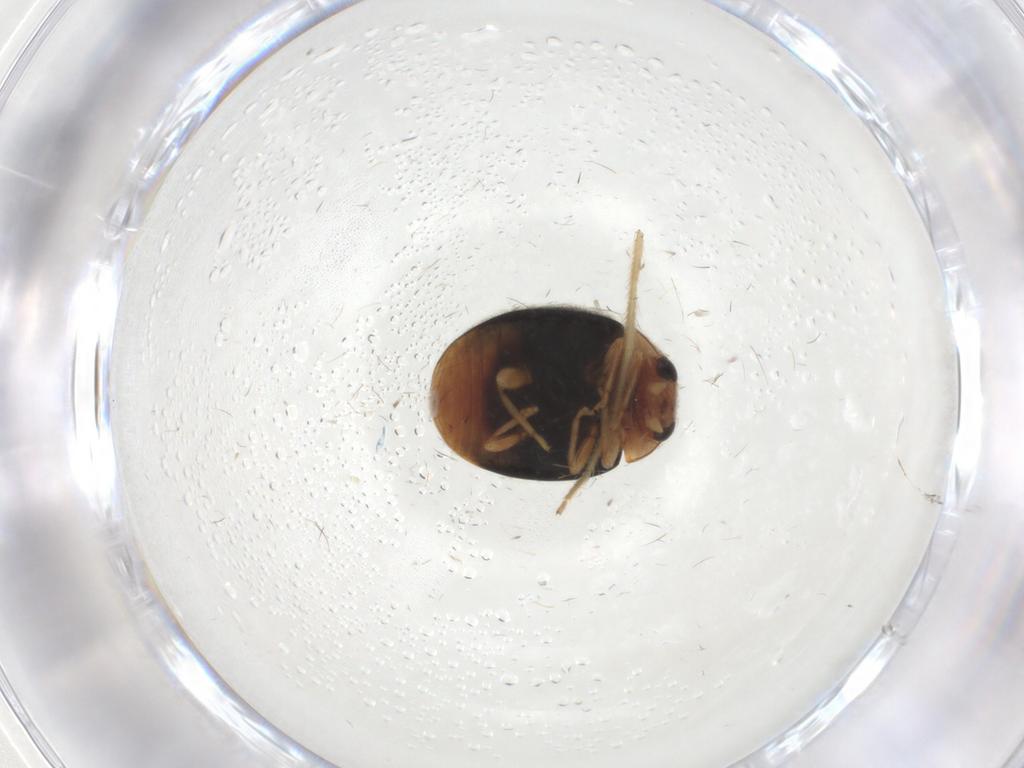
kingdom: Animalia
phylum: Arthropoda
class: Insecta
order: Coleoptera
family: Coccinellidae
